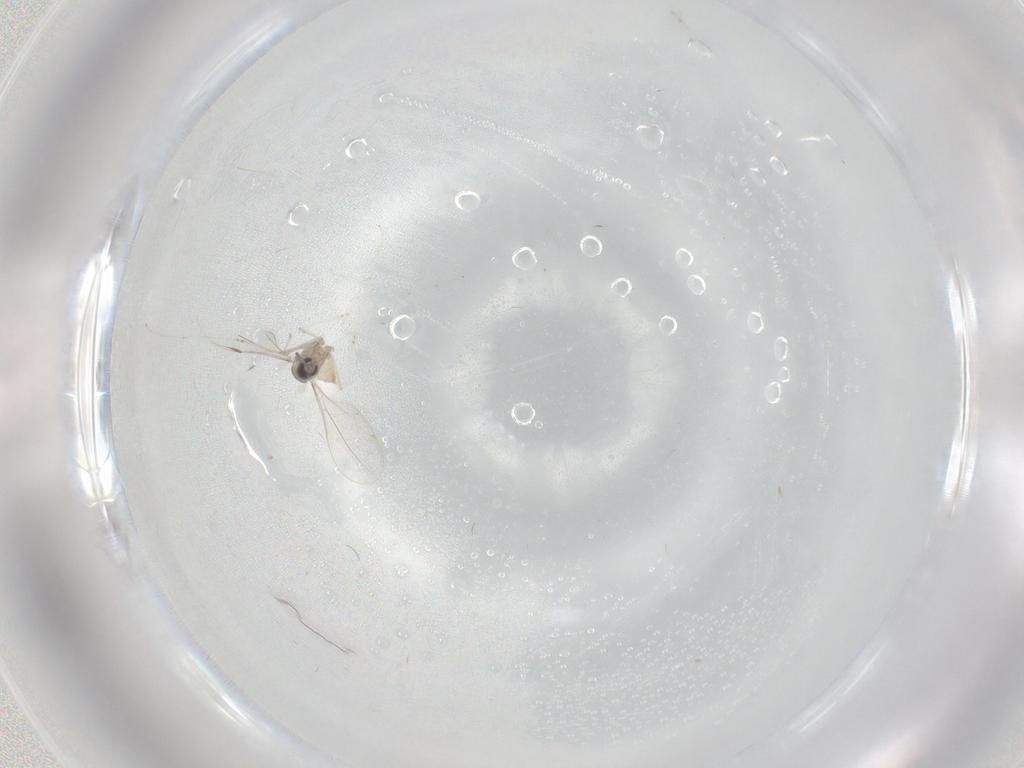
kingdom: Animalia
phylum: Arthropoda
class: Insecta
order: Diptera
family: Cecidomyiidae
